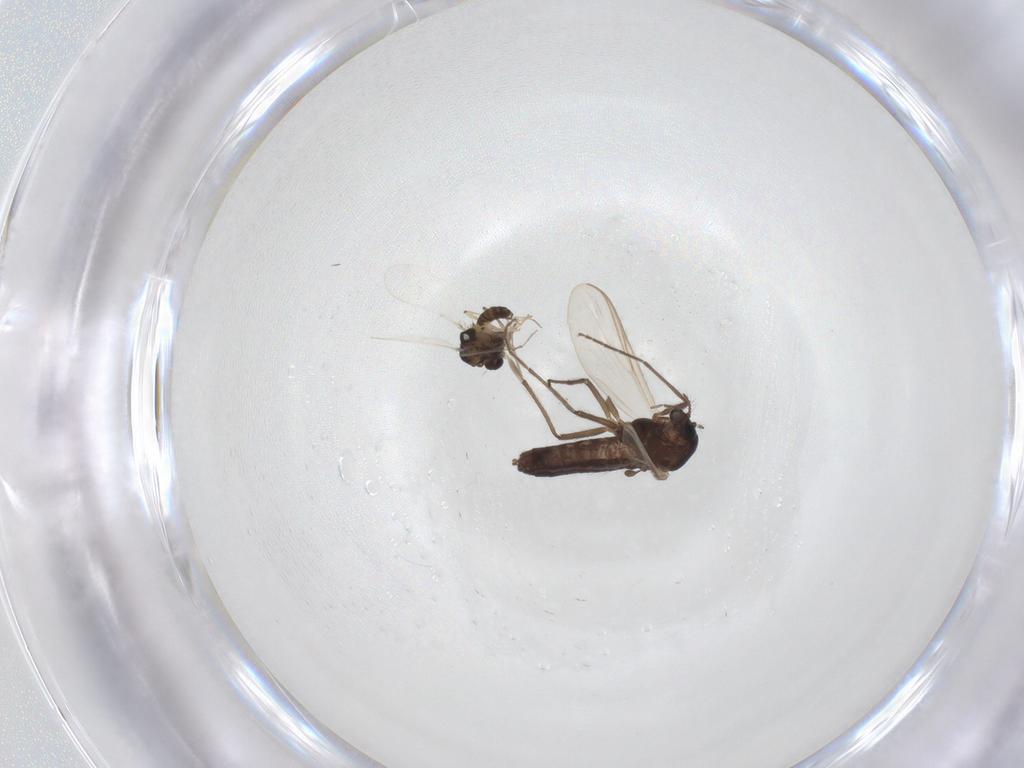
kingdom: Animalia
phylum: Arthropoda
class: Insecta
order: Diptera
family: Chironomidae
